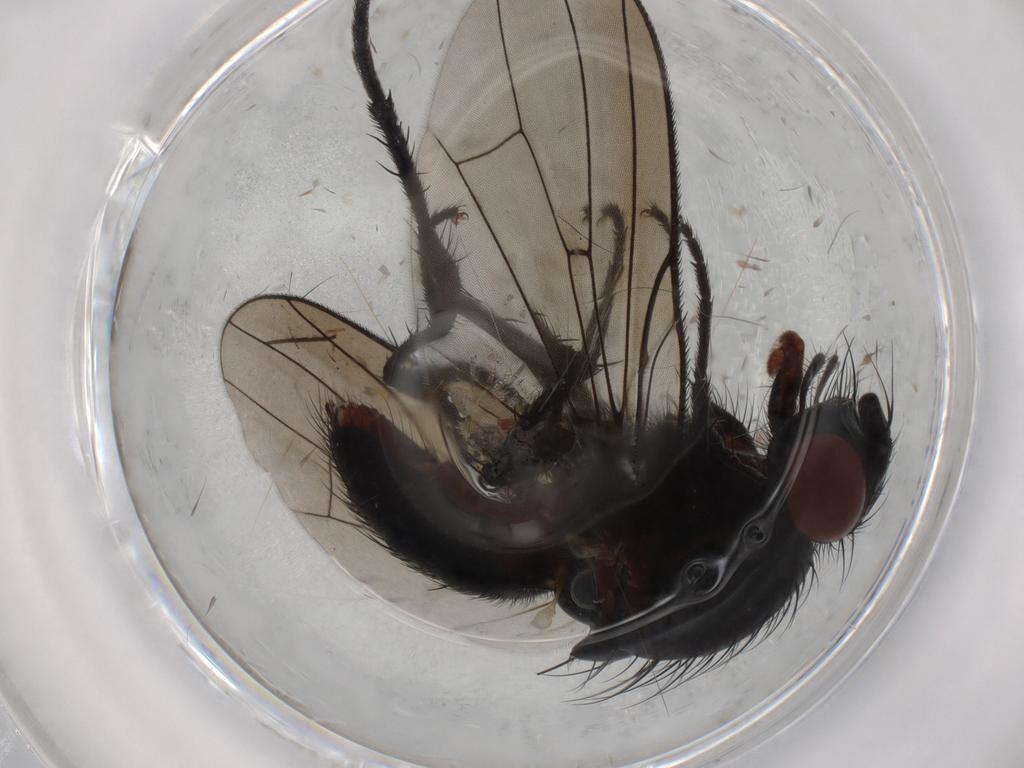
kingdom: Animalia
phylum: Arthropoda
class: Insecta
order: Diptera
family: Anthomyiidae
